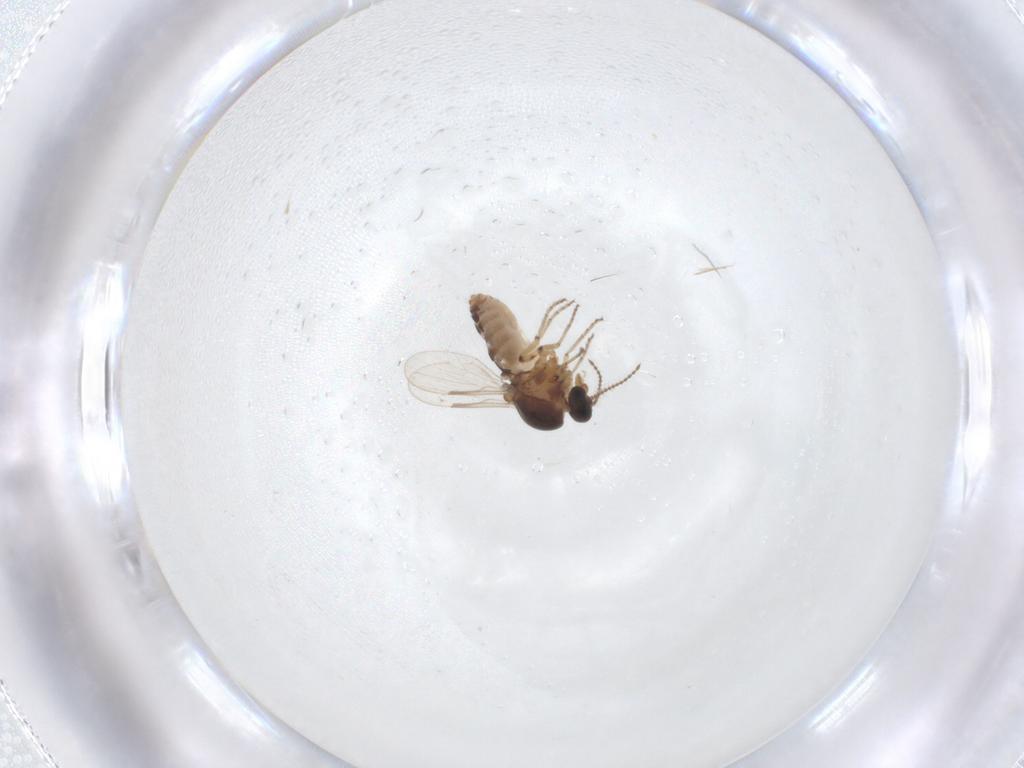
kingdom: Animalia
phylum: Arthropoda
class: Insecta
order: Diptera
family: Ceratopogonidae
